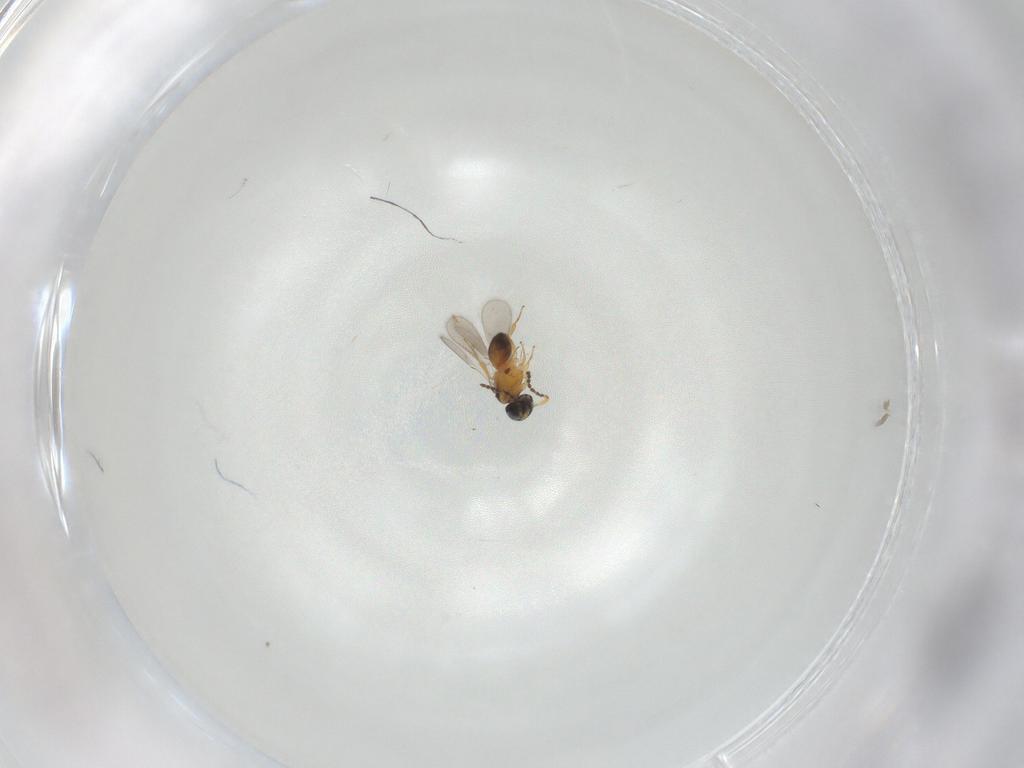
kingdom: Animalia
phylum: Arthropoda
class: Insecta
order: Hymenoptera
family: Scelionidae
